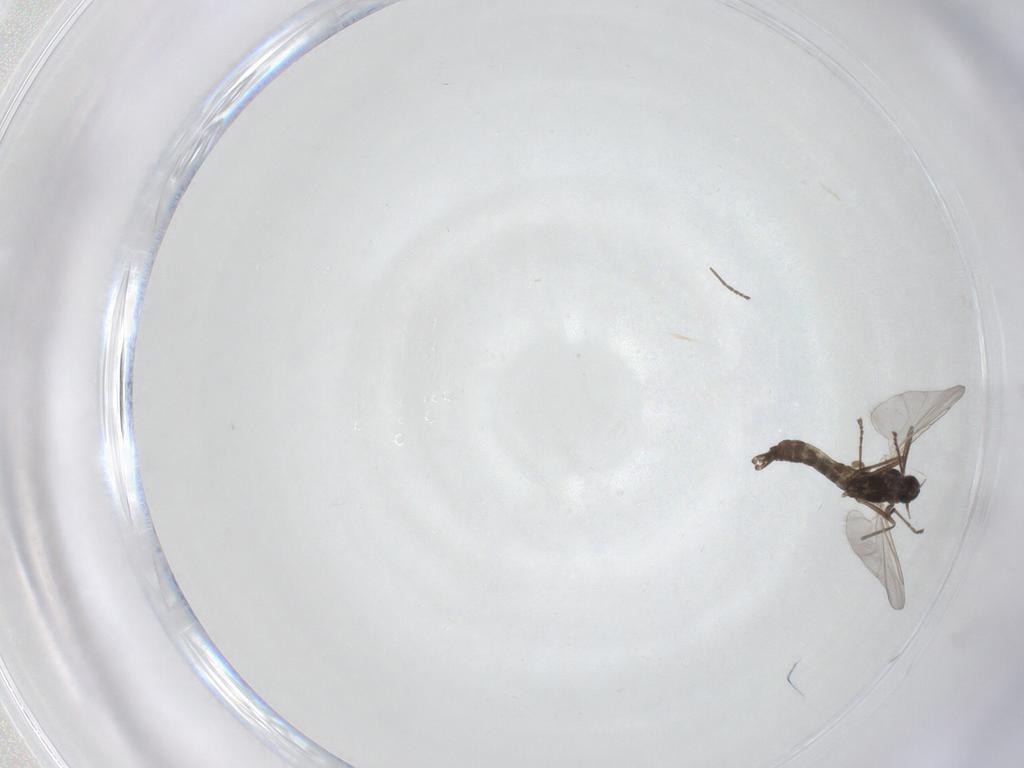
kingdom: Animalia
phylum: Arthropoda
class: Insecta
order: Diptera
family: Cecidomyiidae
